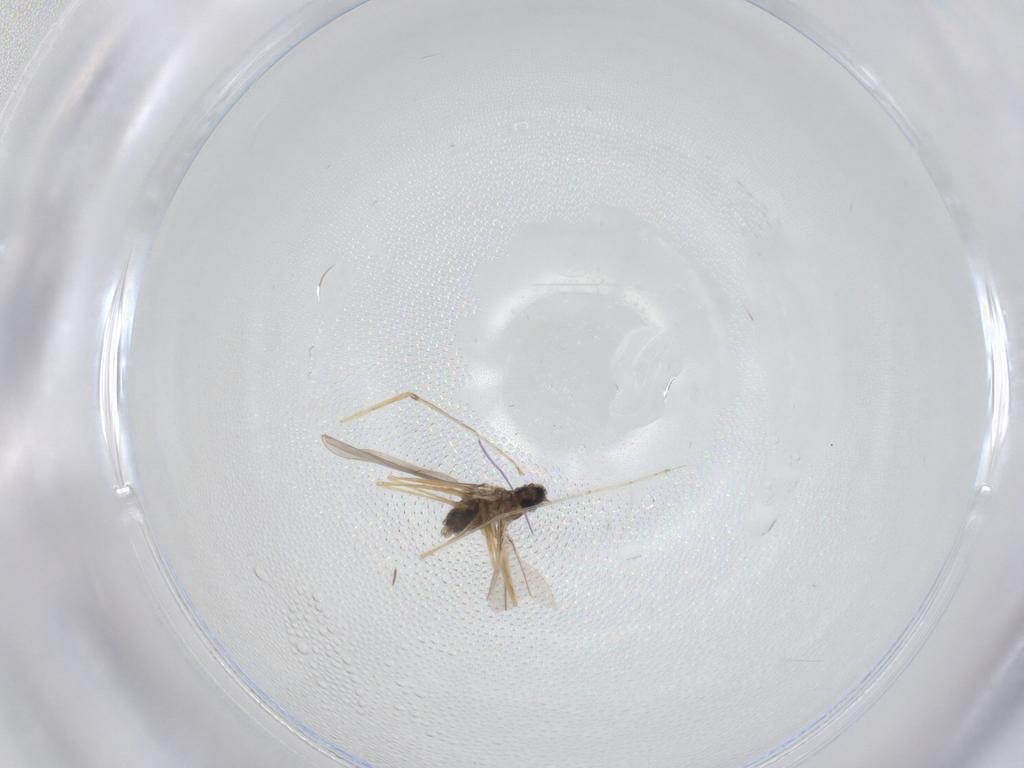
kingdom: Animalia
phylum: Arthropoda
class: Insecta
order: Diptera
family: Cecidomyiidae
